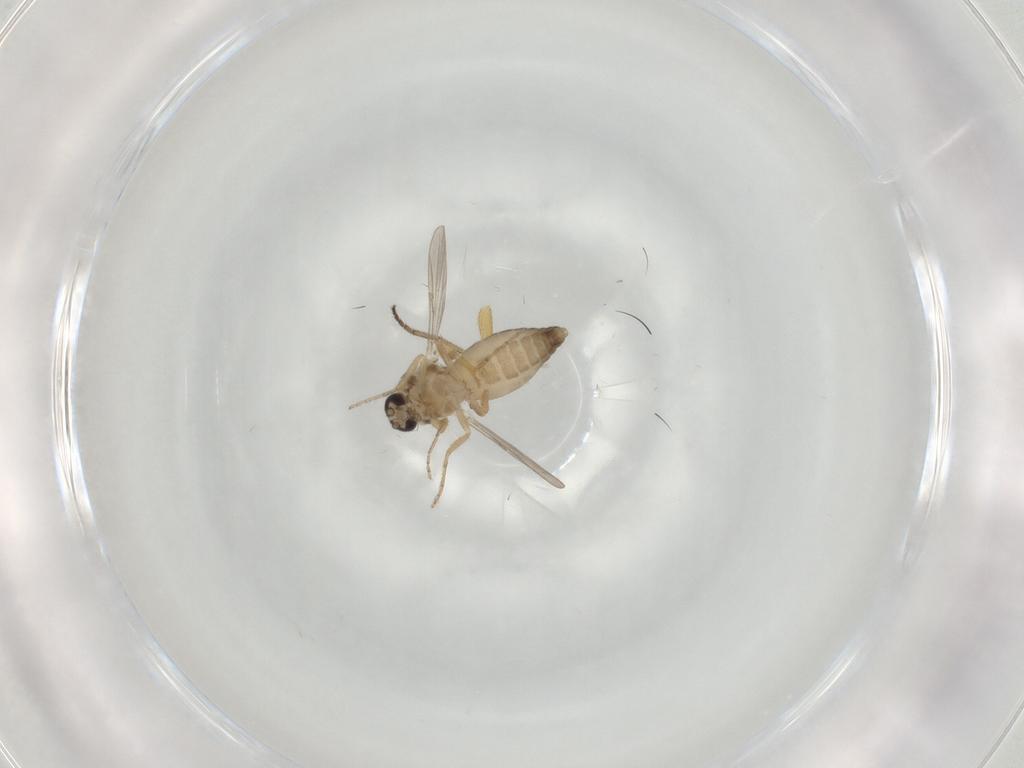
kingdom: Animalia
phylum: Arthropoda
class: Insecta
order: Diptera
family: Ceratopogonidae
